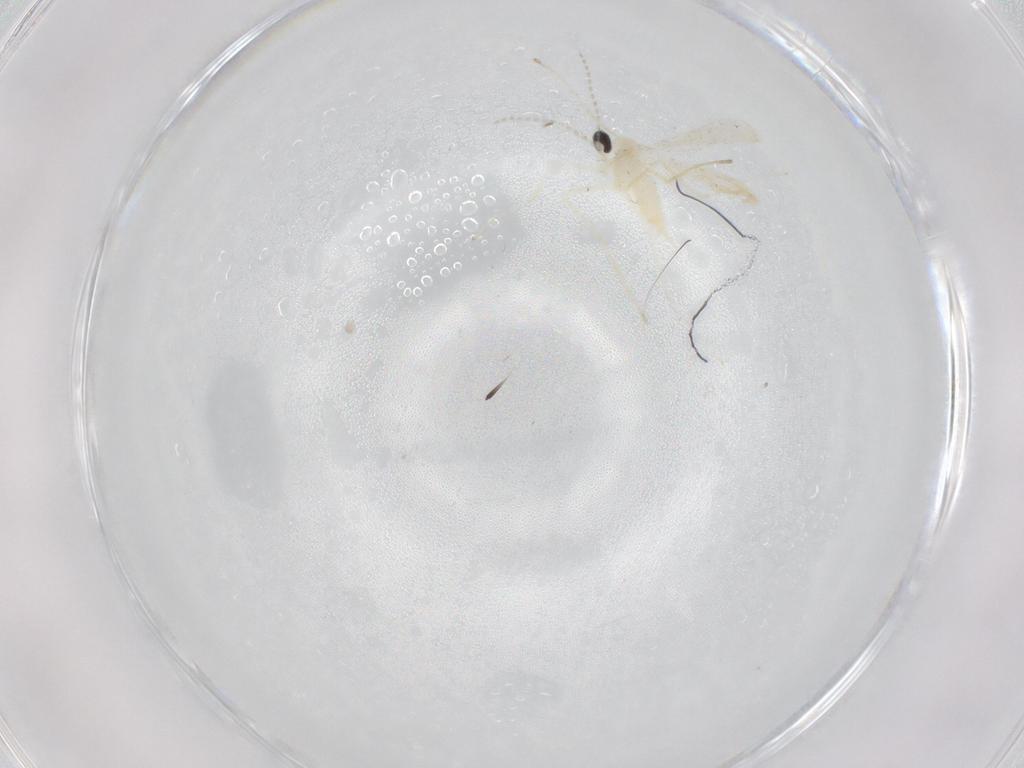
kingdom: Animalia
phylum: Arthropoda
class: Insecta
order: Diptera
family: Cecidomyiidae
